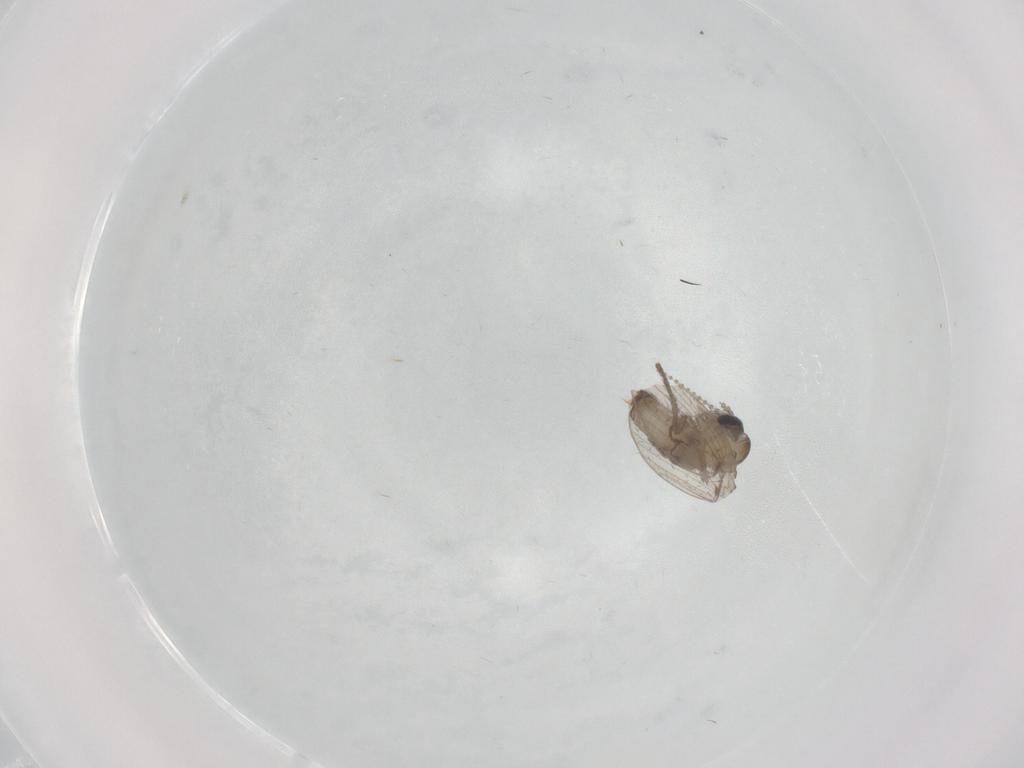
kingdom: Animalia
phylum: Arthropoda
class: Insecta
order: Diptera
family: Psychodidae
